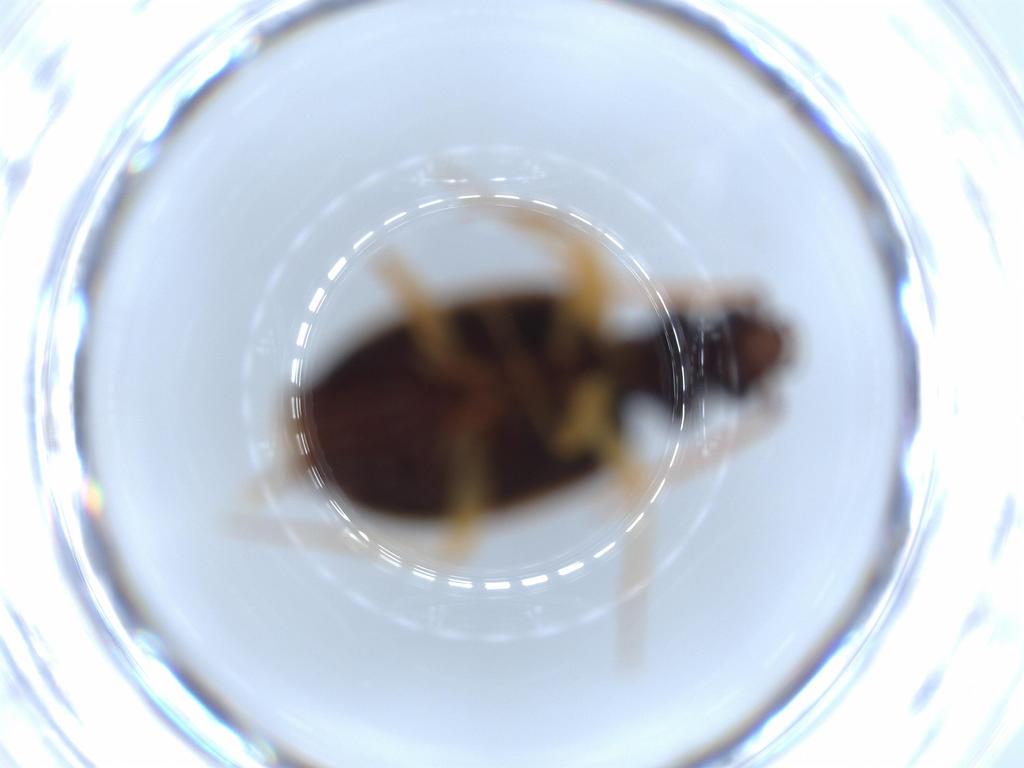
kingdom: Animalia
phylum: Arthropoda
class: Insecta
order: Coleoptera
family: Carabidae
